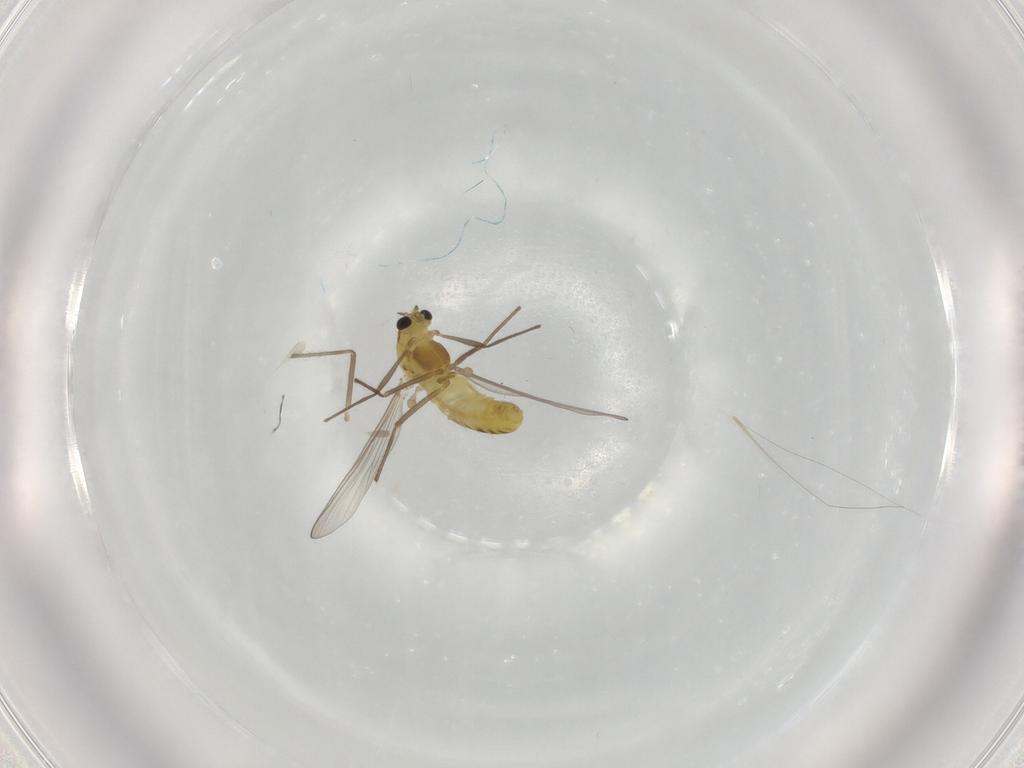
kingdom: Animalia
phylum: Arthropoda
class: Insecta
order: Diptera
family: Chironomidae
